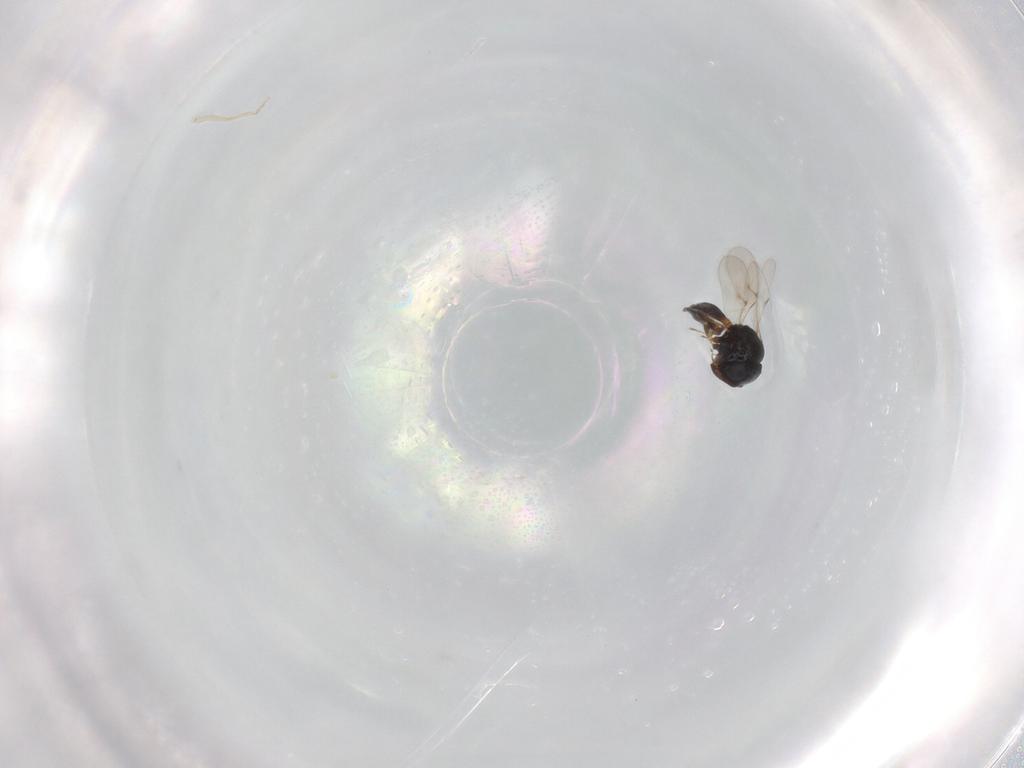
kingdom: Animalia
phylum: Arthropoda
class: Insecta
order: Hymenoptera
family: Scelionidae
